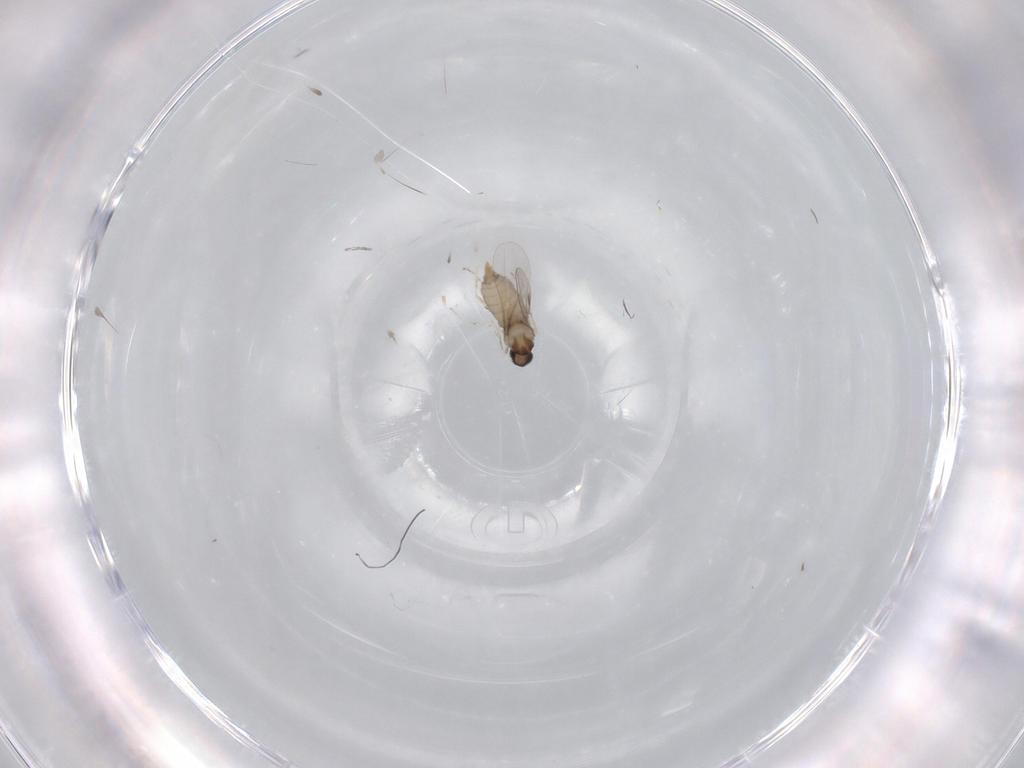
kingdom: Animalia
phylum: Arthropoda
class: Insecta
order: Diptera
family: Cecidomyiidae
